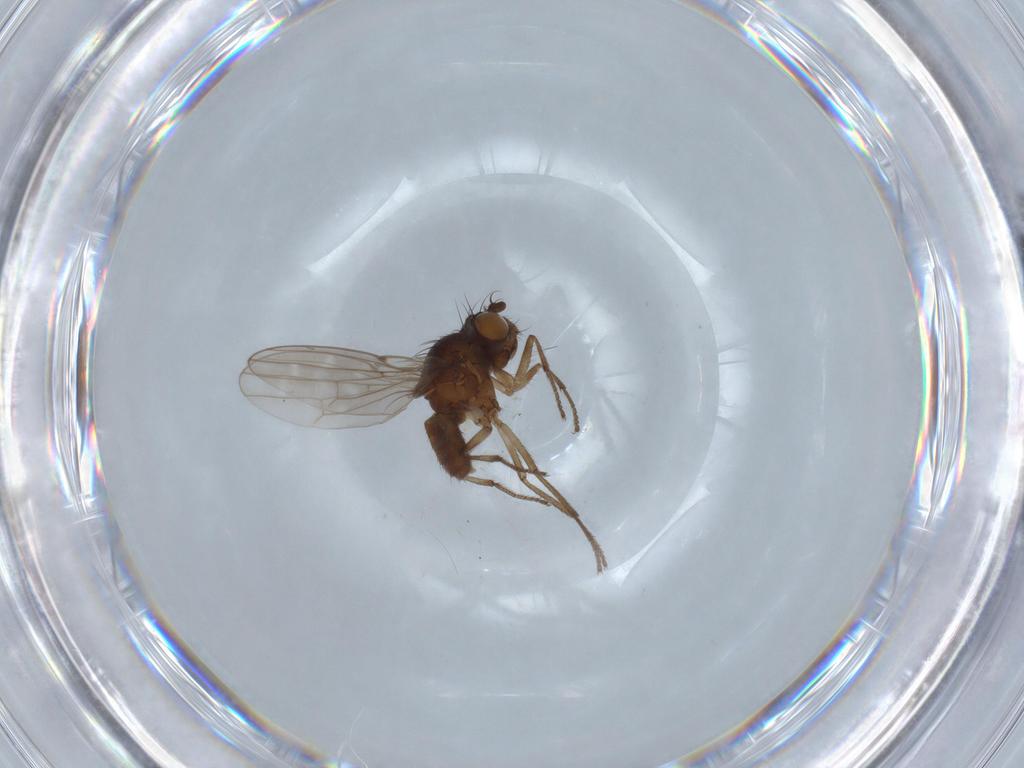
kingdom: Animalia
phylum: Arthropoda
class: Insecta
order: Diptera
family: Ephydridae
